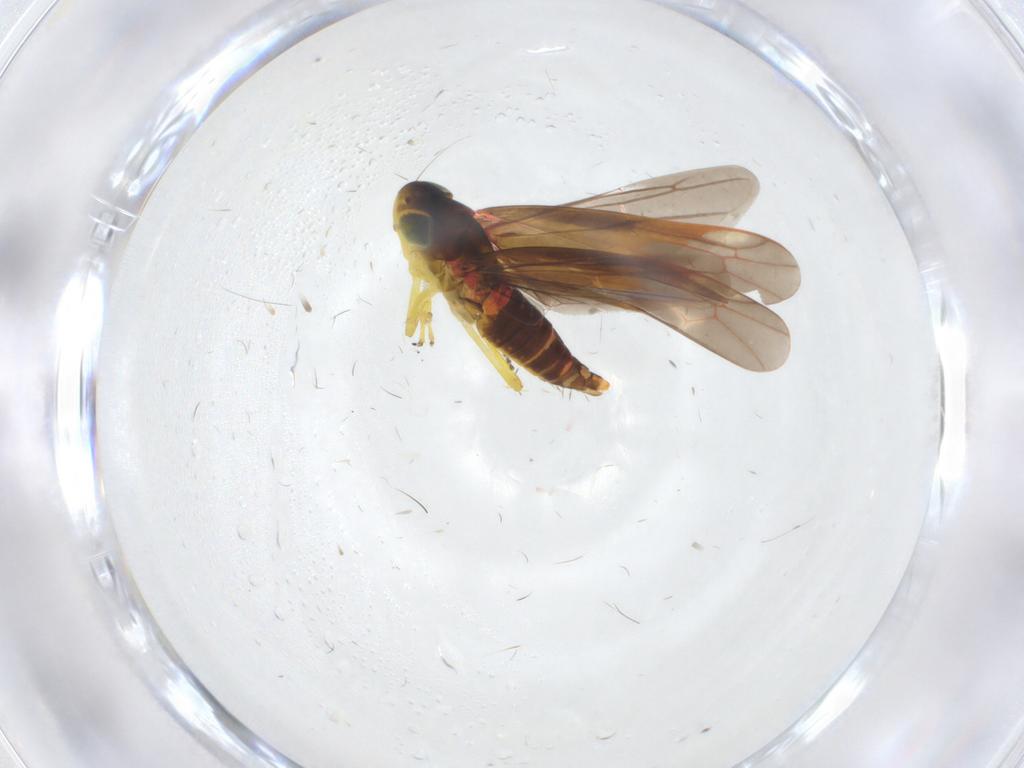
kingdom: Animalia
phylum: Arthropoda
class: Insecta
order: Hemiptera
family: Cicadellidae
